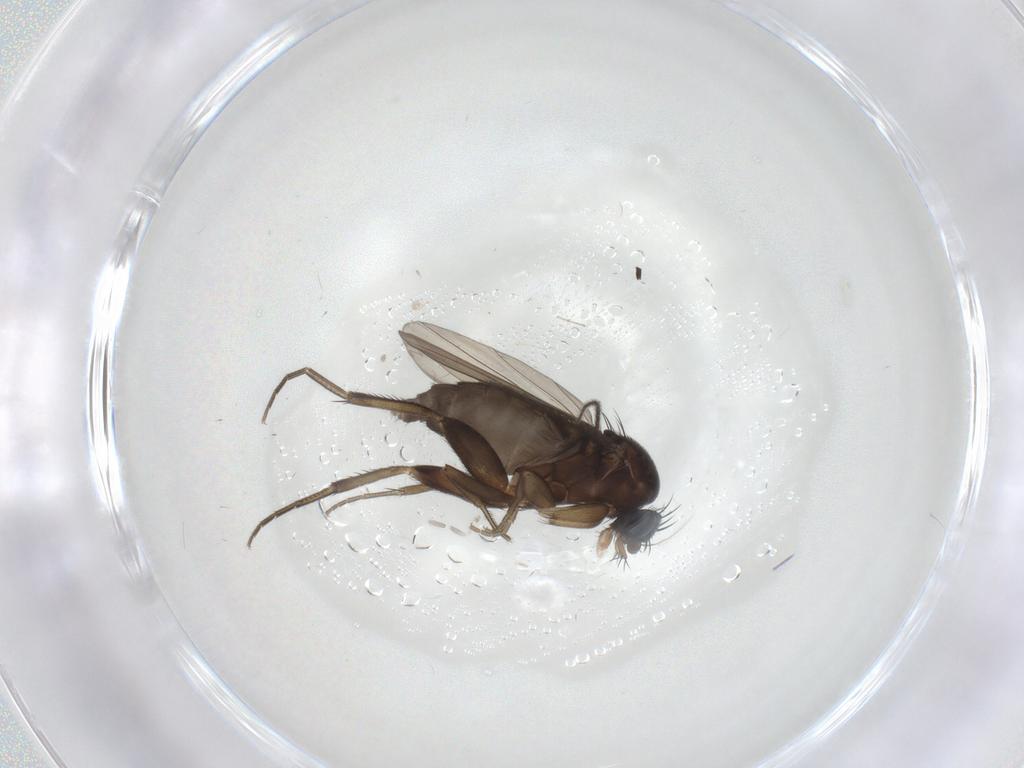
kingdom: Animalia
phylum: Arthropoda
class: Insecta
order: Diptera
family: Phoridae
